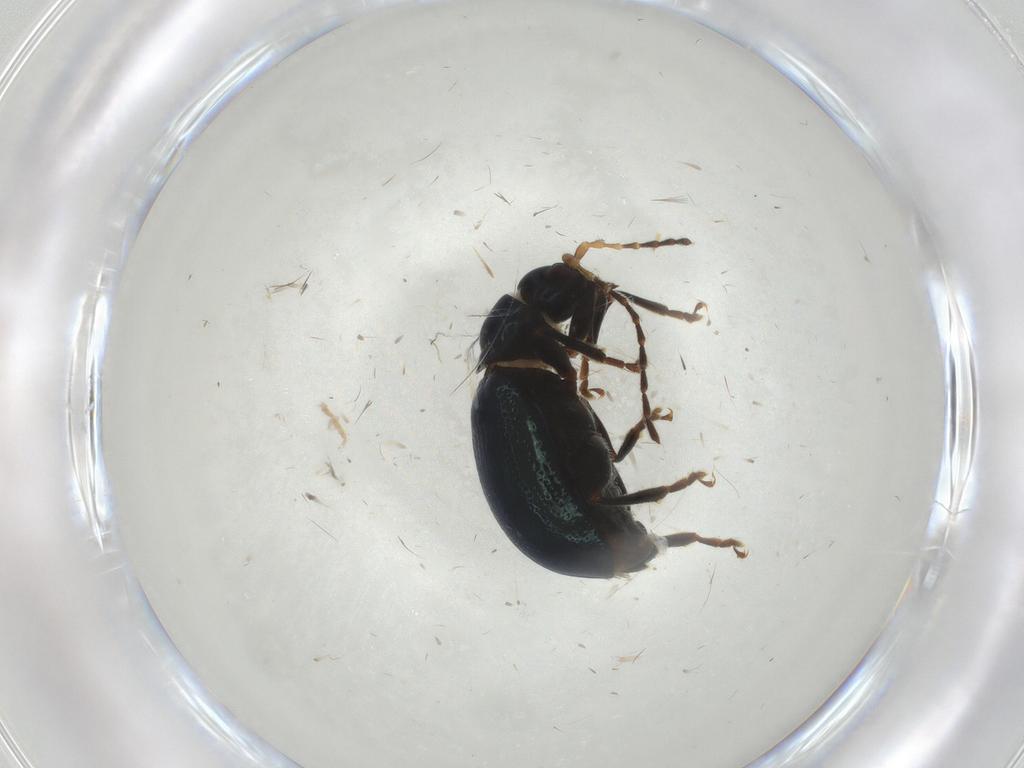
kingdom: Animalia
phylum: Arthropoda
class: Insecta
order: Coleoptera
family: Chrysomelidae
